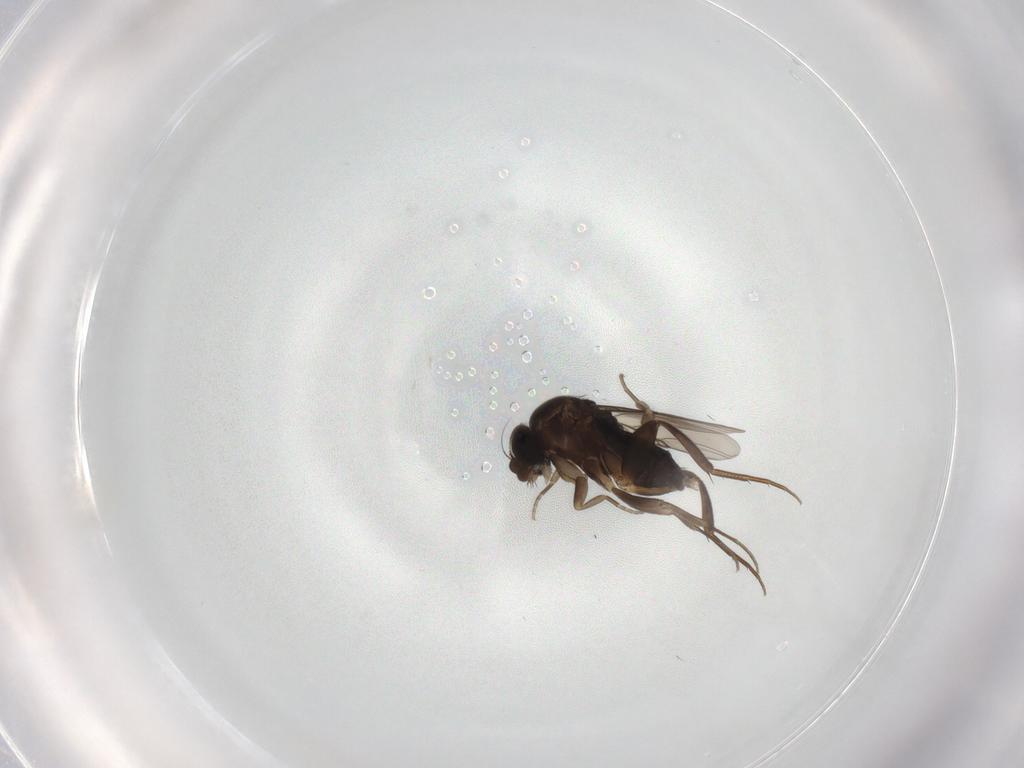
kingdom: Animalia
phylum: Arthropoda
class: Insecta
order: Diptera
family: Phoridae
